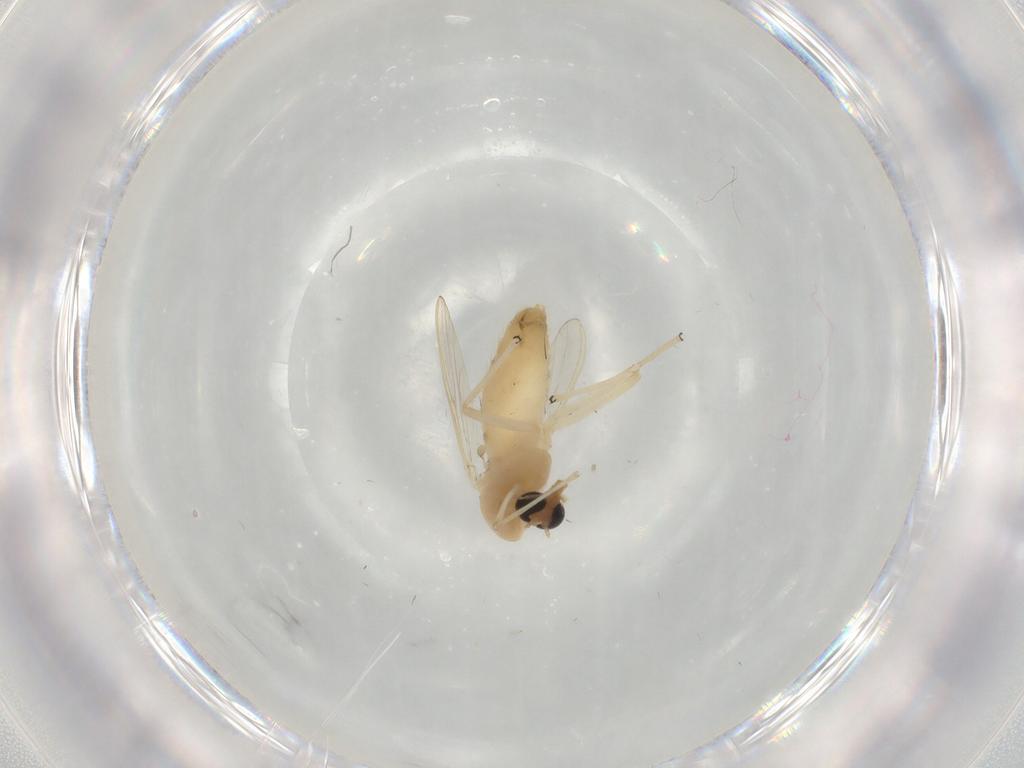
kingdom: Animalia
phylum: Arthropoda
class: Insecta
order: Diptera
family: Chironomidae
